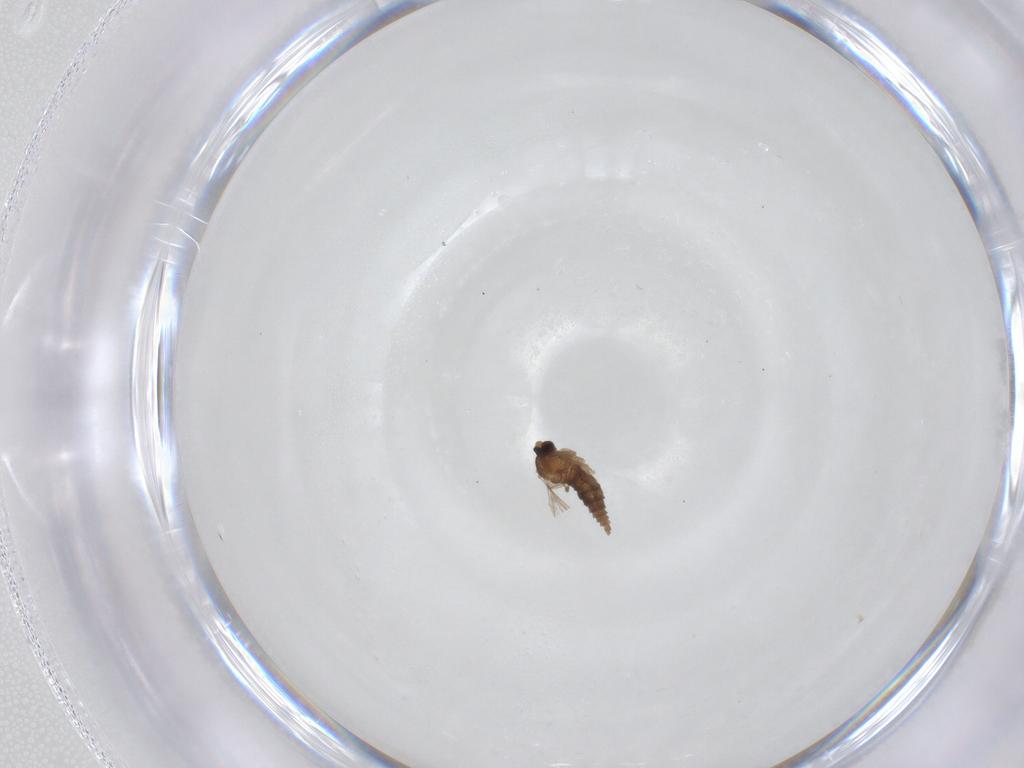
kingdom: Animalia
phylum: Arthropoda
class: Insecta
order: Diptera
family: Cecidomyiidae
